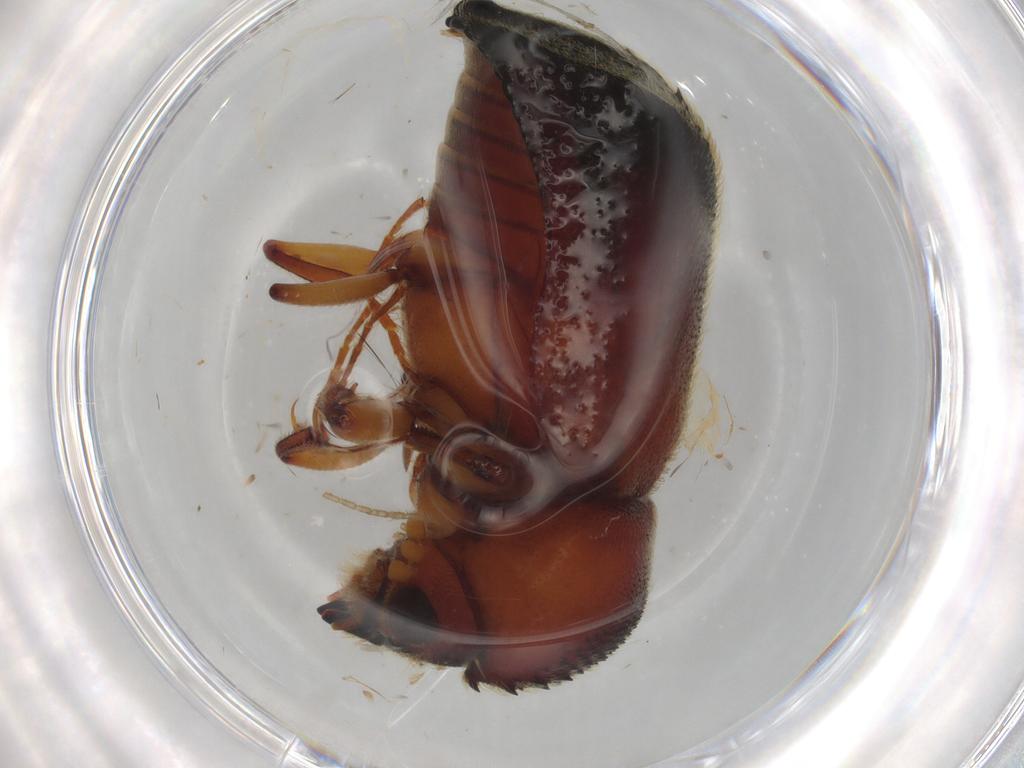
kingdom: Animalia
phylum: Arthropoda
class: Insecta
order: Coleoptera
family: Bostrichidae
